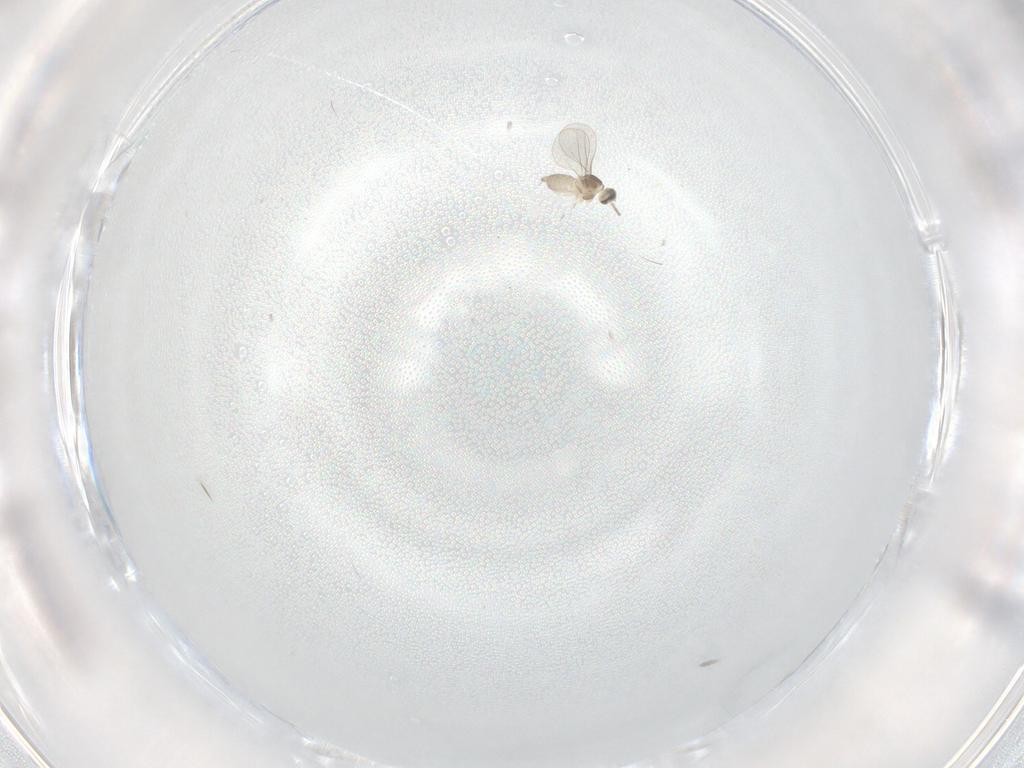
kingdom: Animalia
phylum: Arthropoda
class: Insecta
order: Diptera
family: Cecidomyiidae
